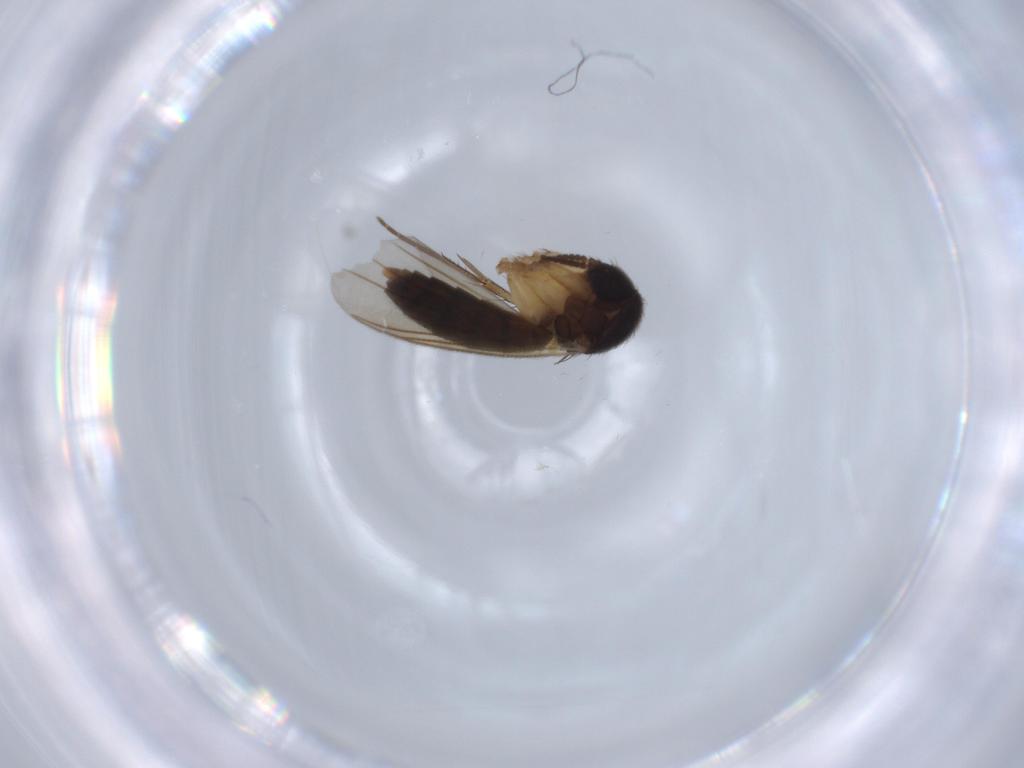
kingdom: Animalia
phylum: Arthropoda
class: Insecta
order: Diptera
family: Mycetophilidae
